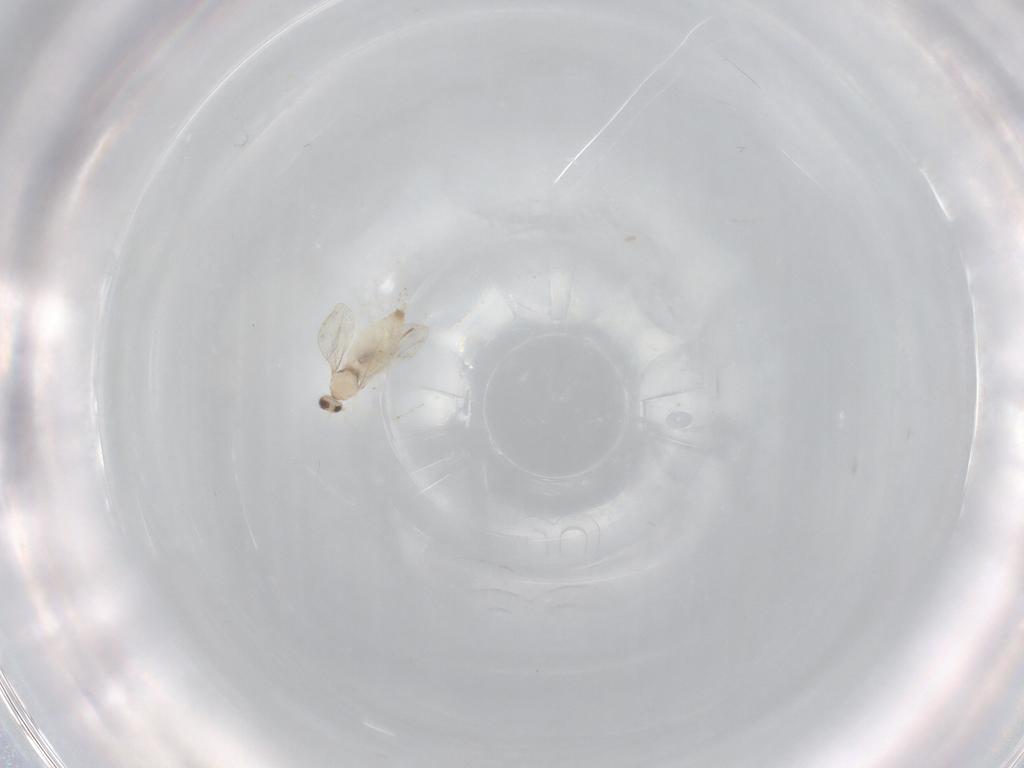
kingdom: Animalia
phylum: Arthropoda
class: Insecta
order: Diptera
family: Cecidomyiidae
